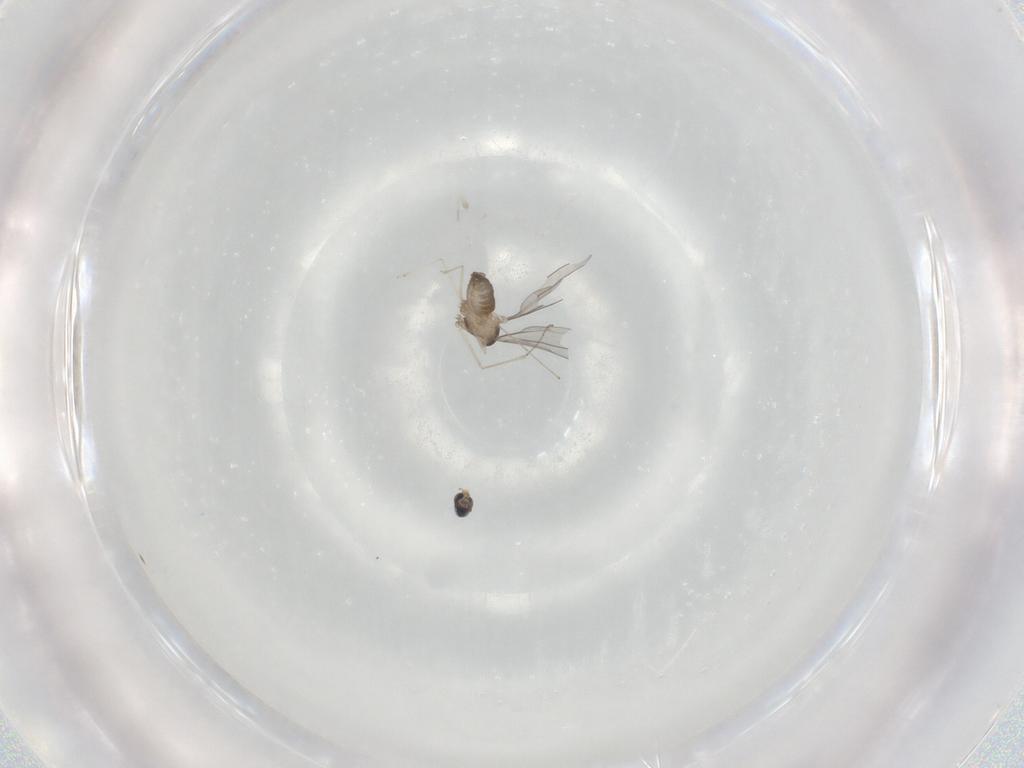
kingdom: Animalia
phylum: Arthropoda
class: Insecta
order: Diptera
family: Cecidomyiidae
